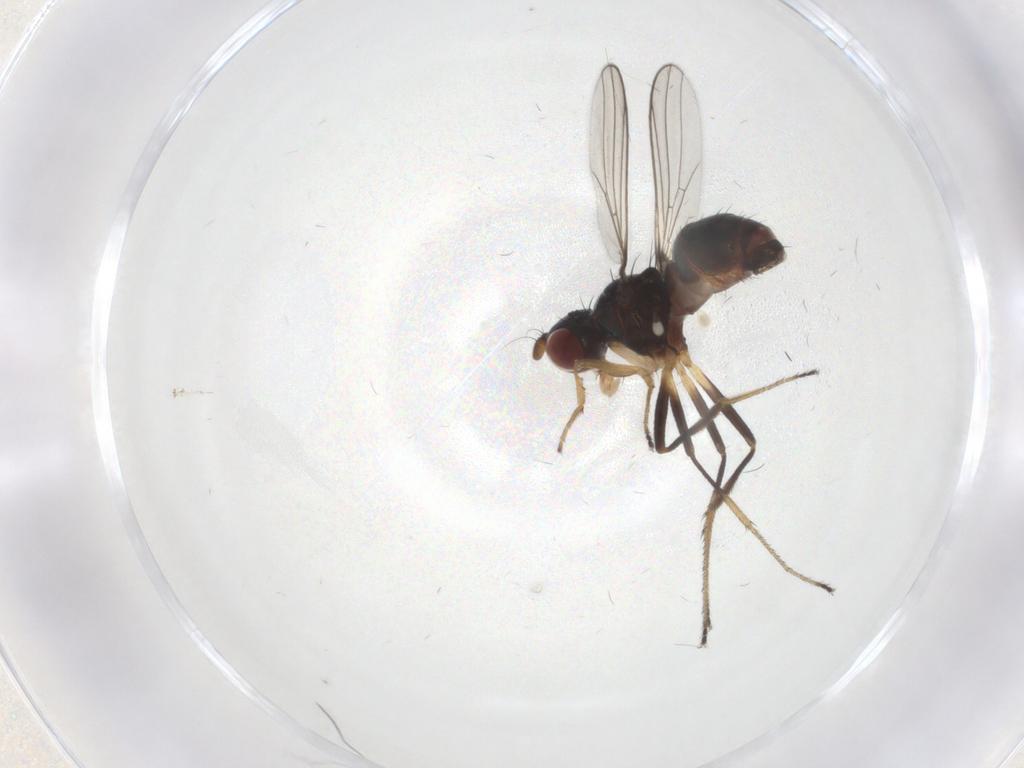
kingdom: Animalia
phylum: Arthropoda
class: Insecta
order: Diptera
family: Sepsidae
